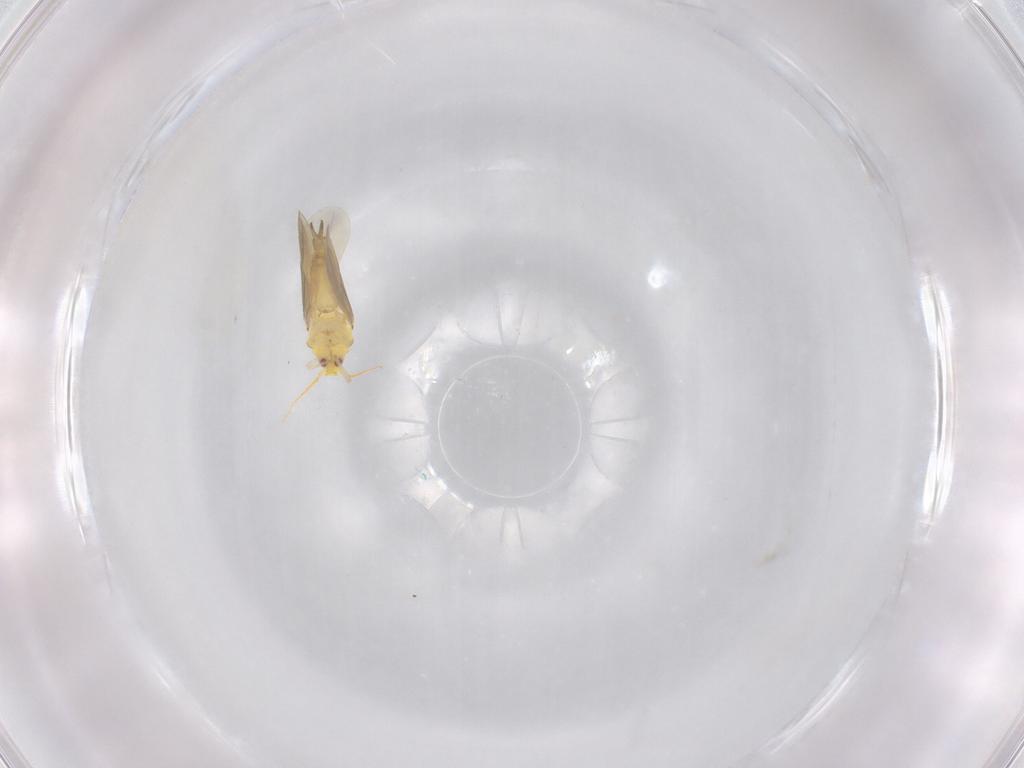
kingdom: Animalia
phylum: Arthropoda
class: Insecta
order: Hemiptera
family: Aleyrodidae
